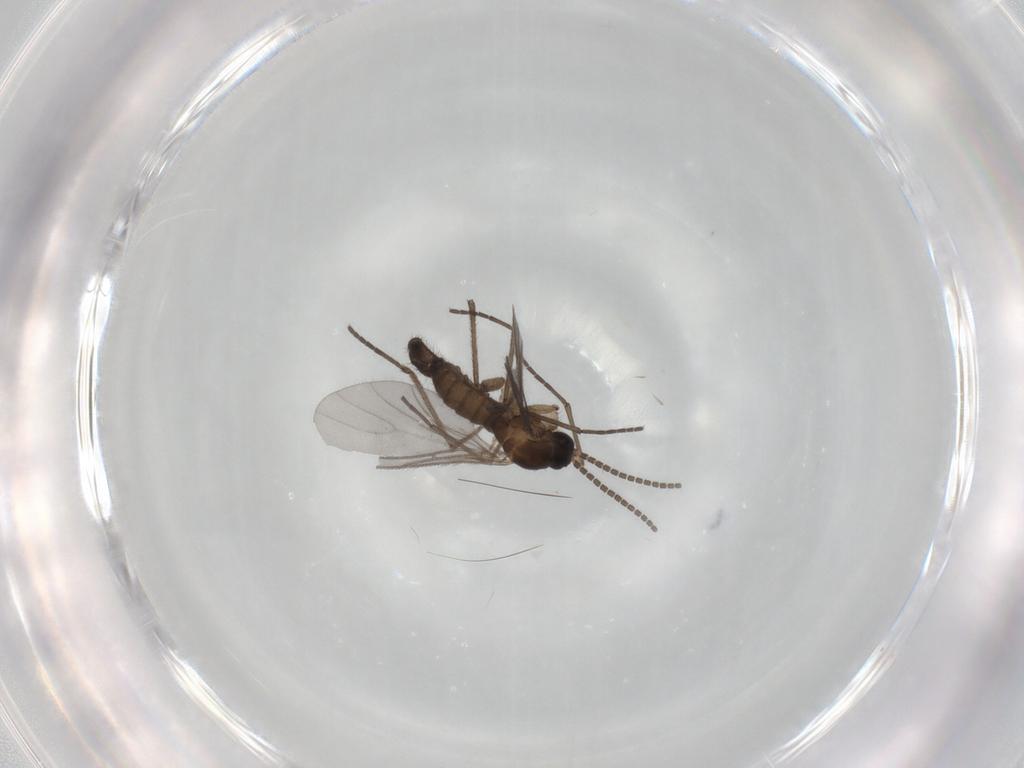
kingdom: Animalia
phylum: Arthropoda
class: Insecta
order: Diptera
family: Sciaridae
